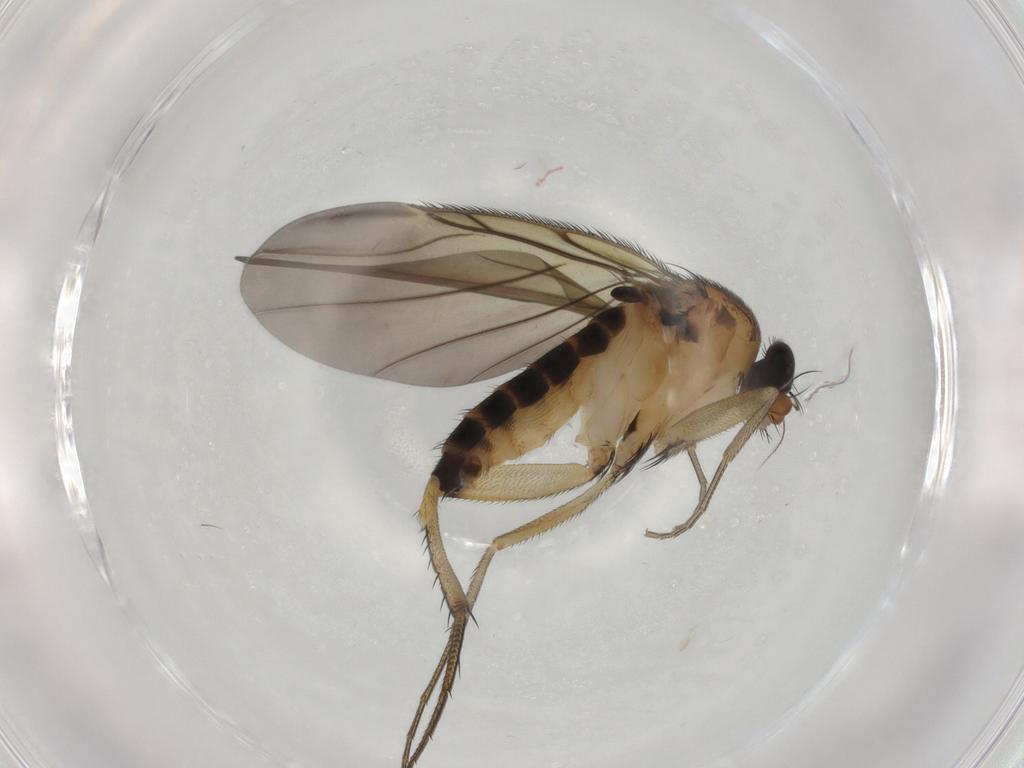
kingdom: Animalia
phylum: Arthropoda
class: Insecta
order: Diptera
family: Phoridae
